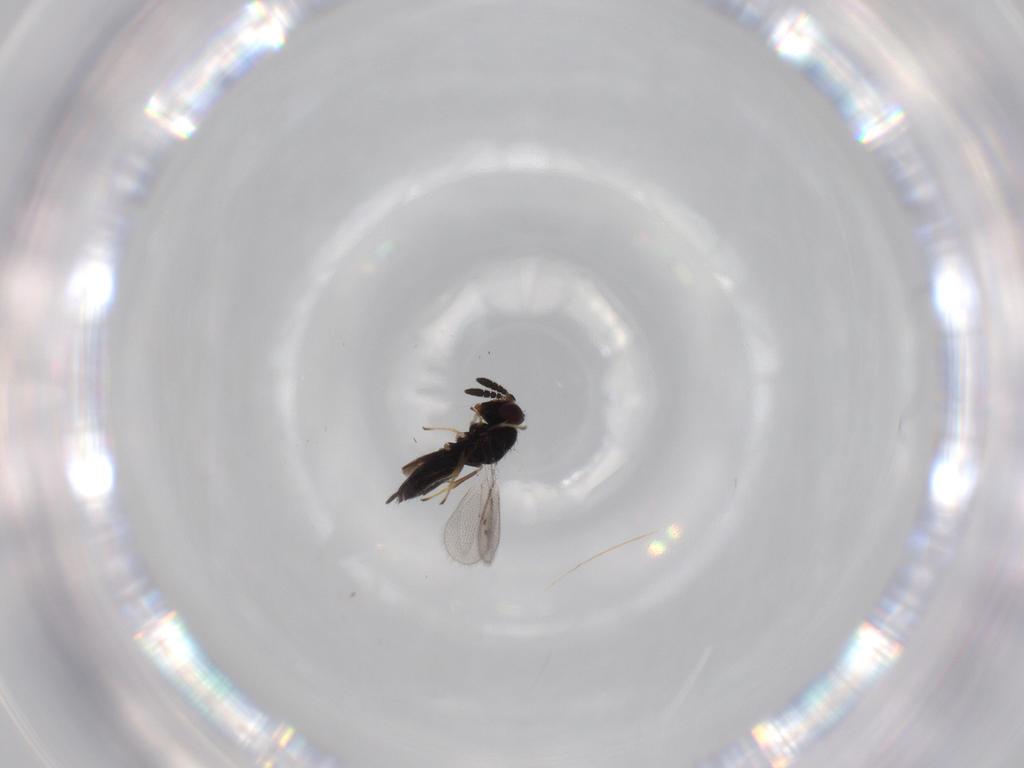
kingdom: Animalia
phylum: Arthropoda
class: Insecta
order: Hymenoptera
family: Pirenidae
